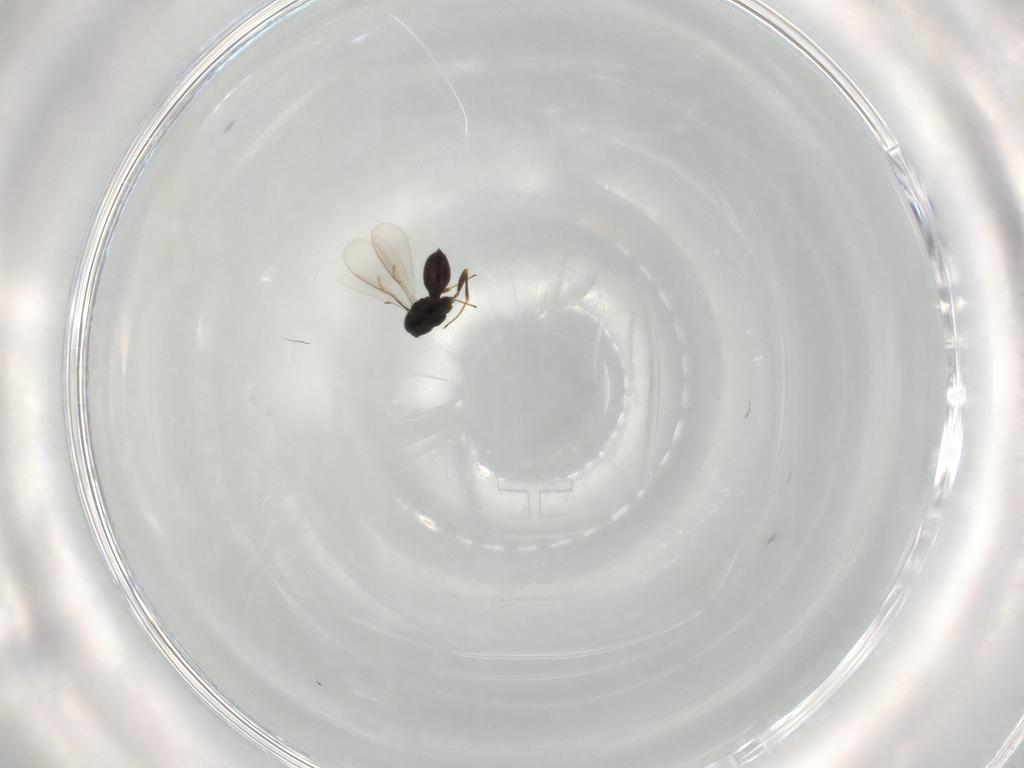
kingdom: Animalia
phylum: Arthropoda
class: Insecta
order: Hymenoptera
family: Scelionidae
